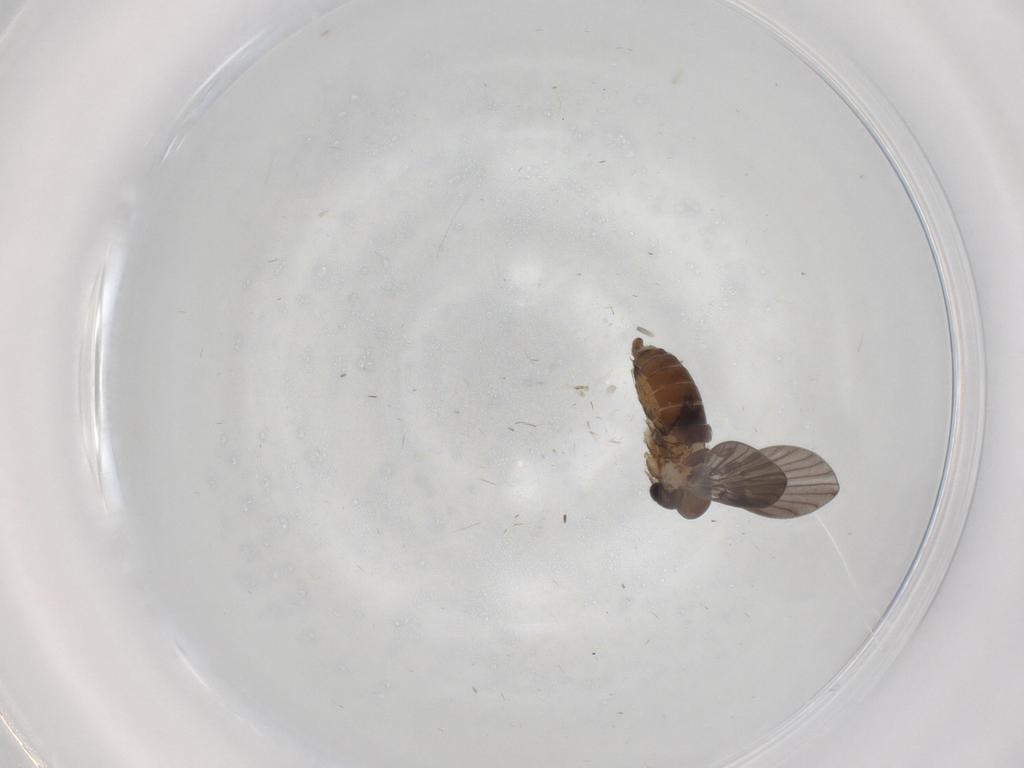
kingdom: Animalia
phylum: Arthropoda
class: Insecta
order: Diptera
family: Psychodidae
